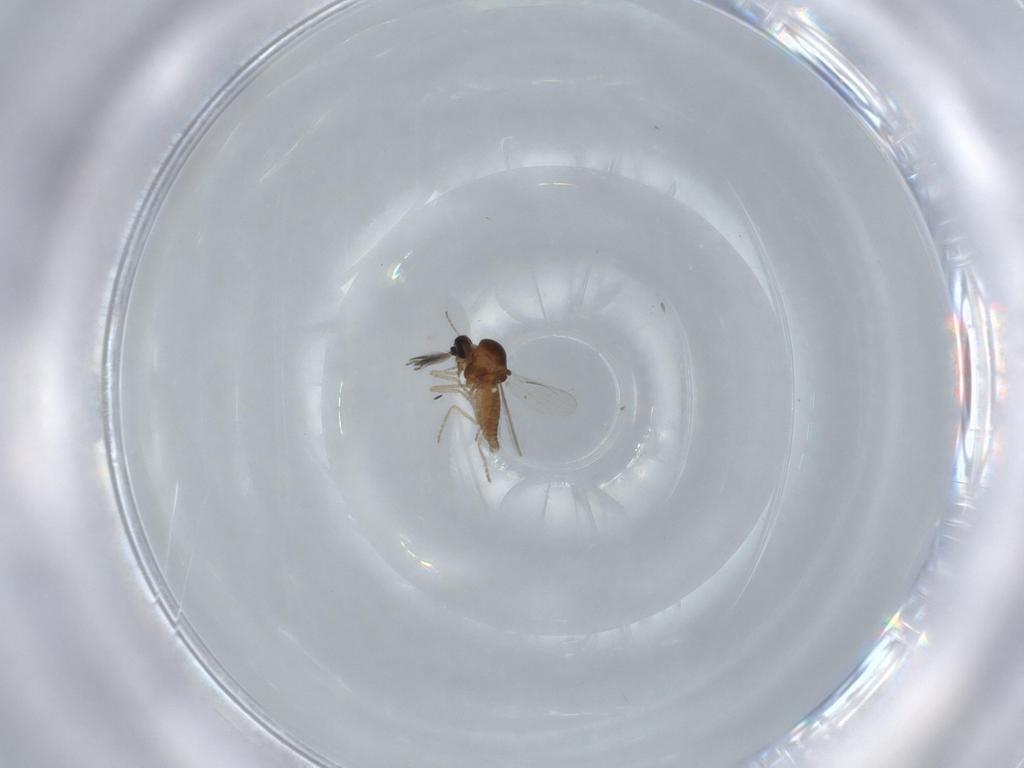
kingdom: Animalia
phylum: Arthropoda
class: Insecta
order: Diptera
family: Ceratopogonidae
